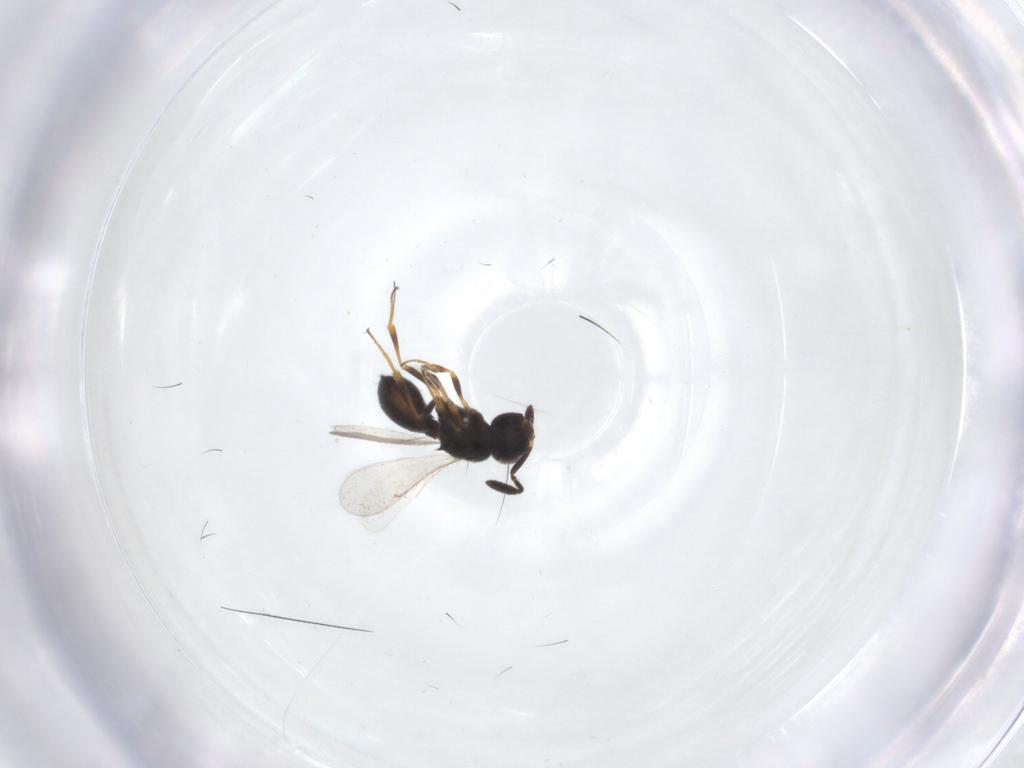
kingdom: Animalia
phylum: Arthropoda
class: Insecta
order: Hymenoptera
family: Scelionidae
